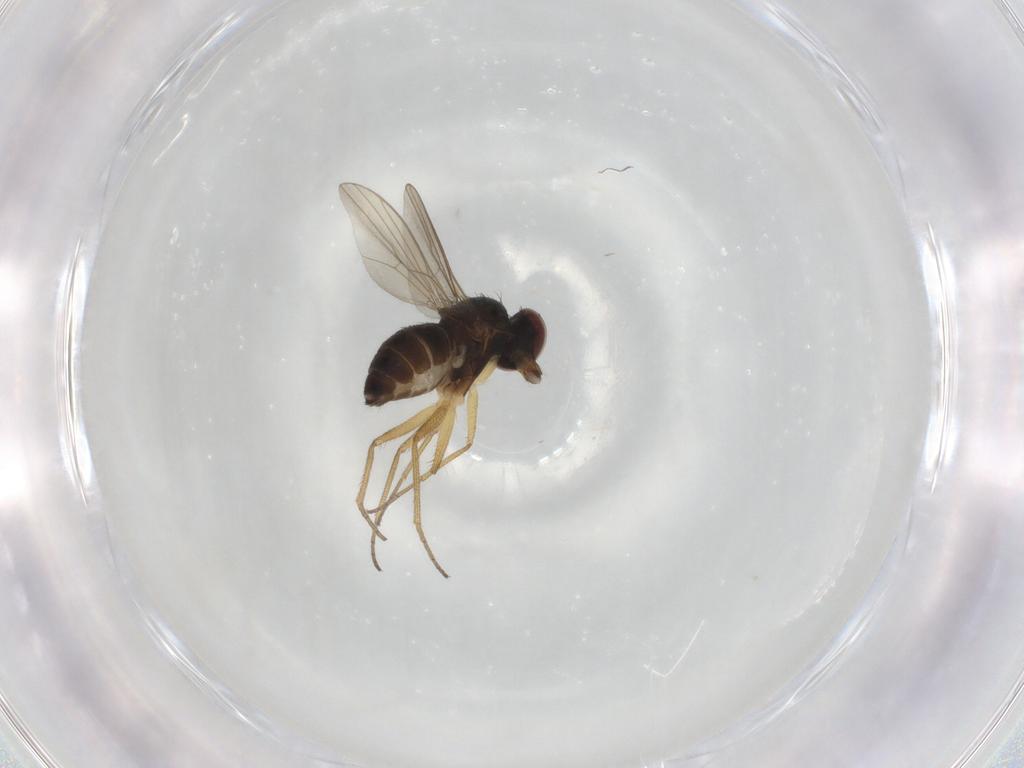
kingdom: Animalia
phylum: Arthropoda
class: Insecta
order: Diptera
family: Dolichopodidae
